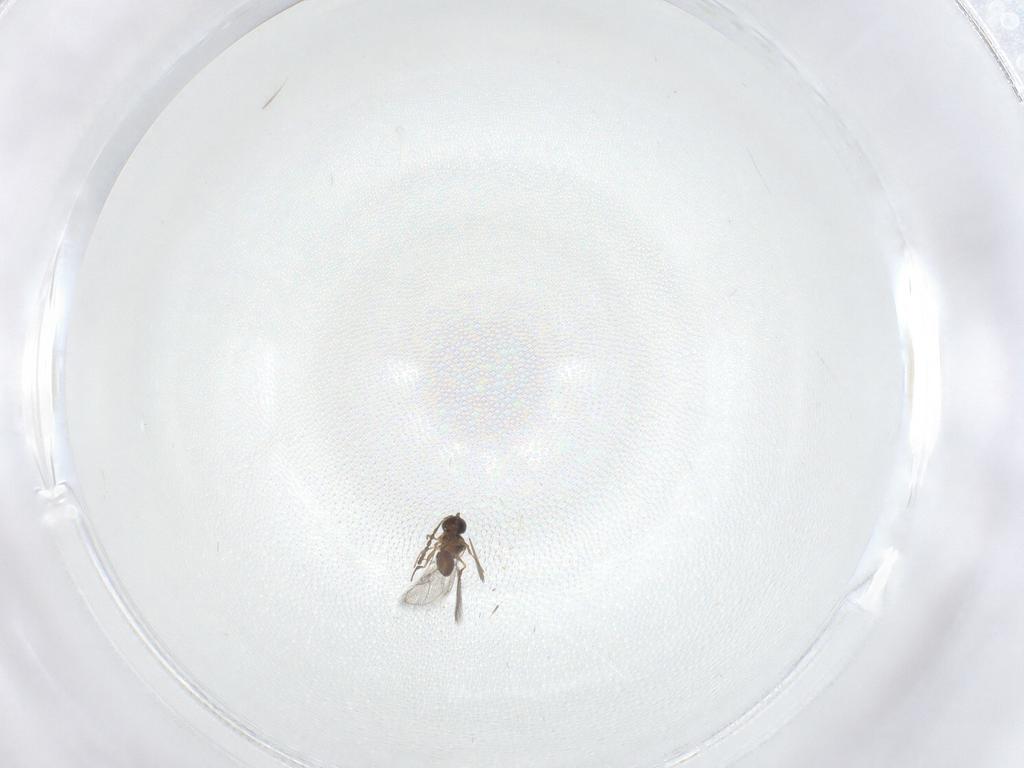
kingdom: Animalia
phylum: Arthropoda
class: Insecta
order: Hymenoptera
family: Figitidae
